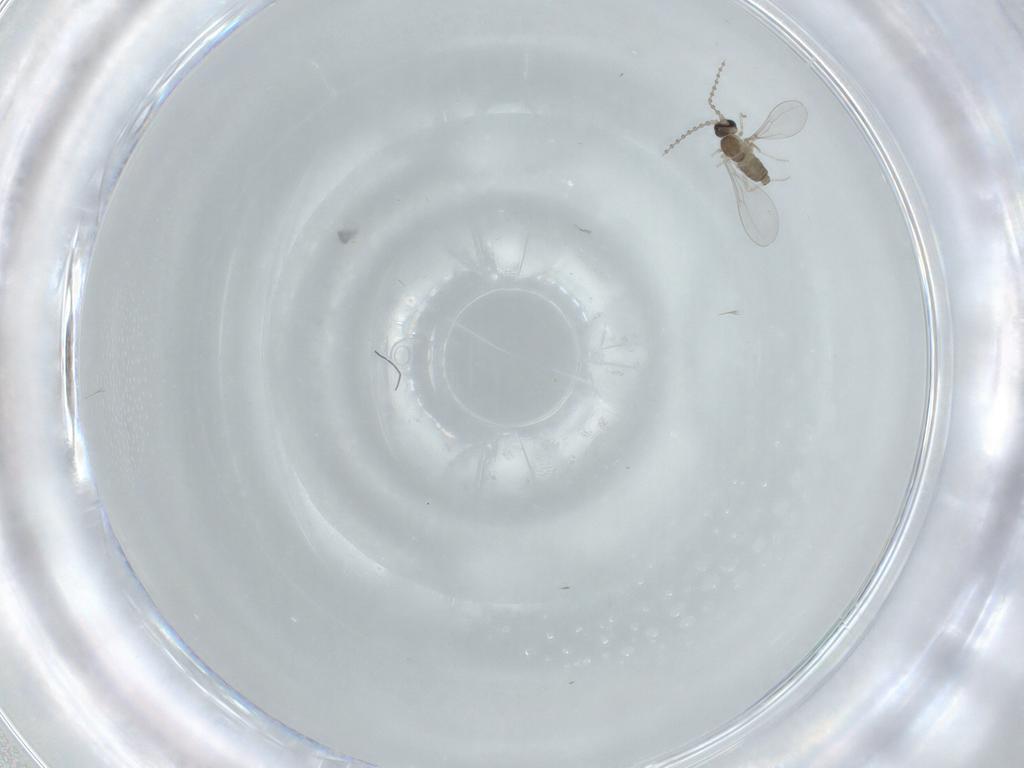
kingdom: Animalia
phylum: Arthropoda
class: Insecta
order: Diptera
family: Cecidomyiidae
